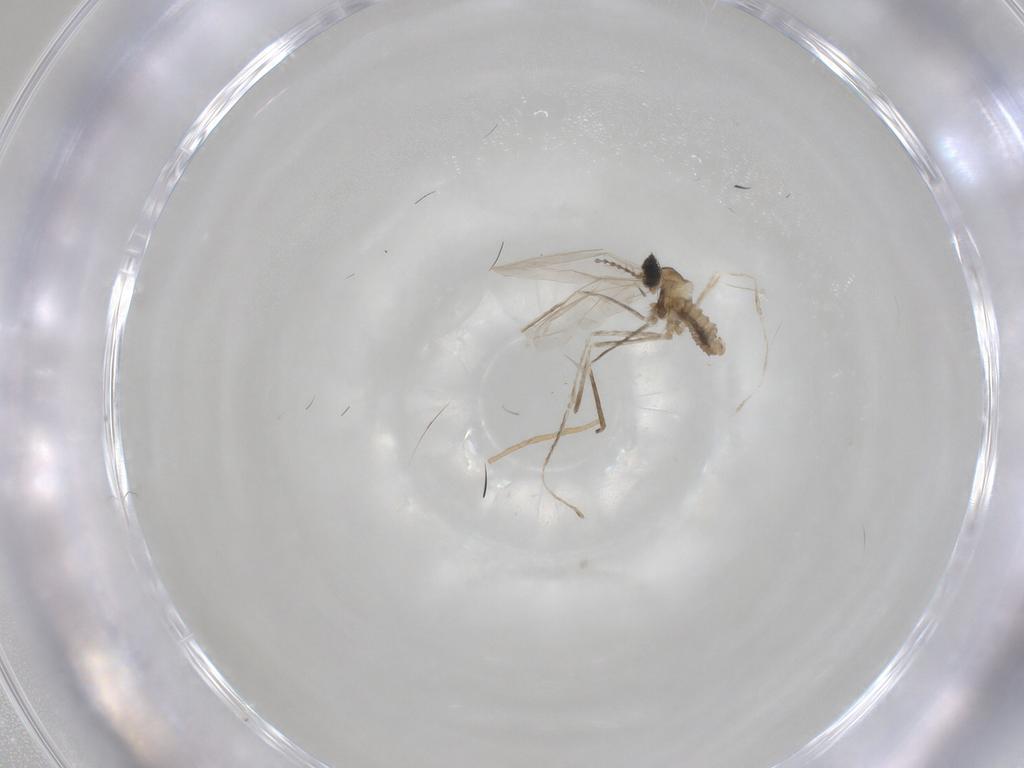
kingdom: Animalia
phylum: Arthropoda
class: Insecta
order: Diptera
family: Cecidomyiidae
